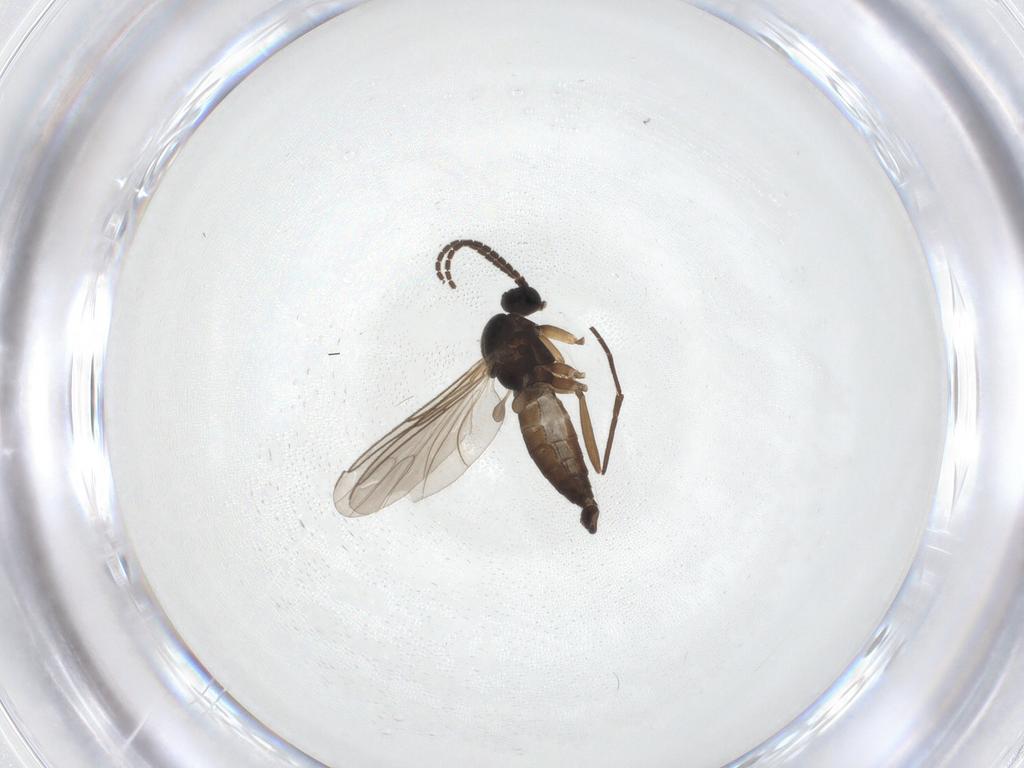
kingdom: Animalia
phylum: Arthropoda
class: Insecta
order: Diptera
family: Sciaridae
